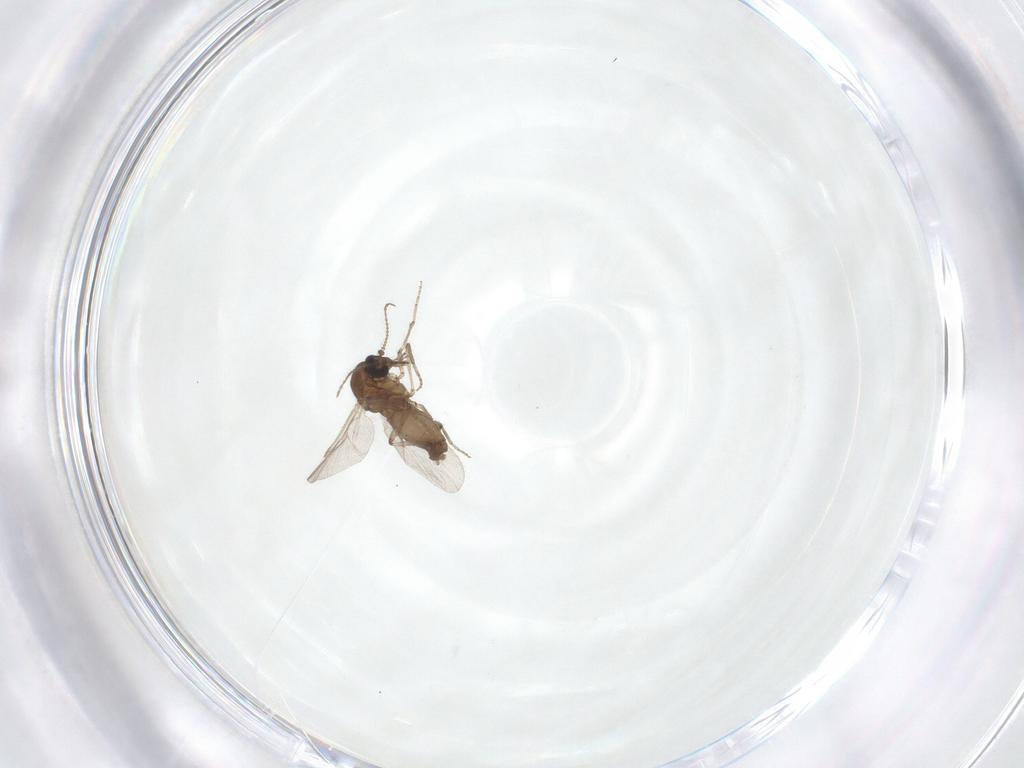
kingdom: Animalia
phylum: Arthropoda
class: Insecta
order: Diptera
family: Ceratopogonidae
